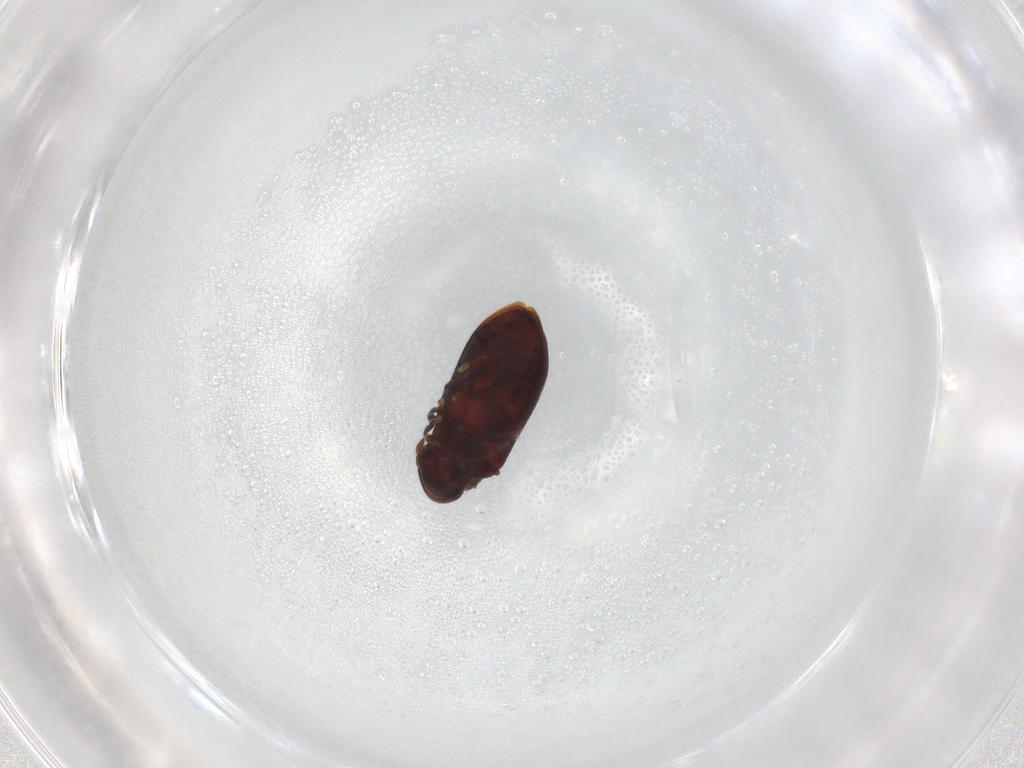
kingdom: Animalia
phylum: Arthropoda
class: Insecta
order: Coleoptera
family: Ptinidae
